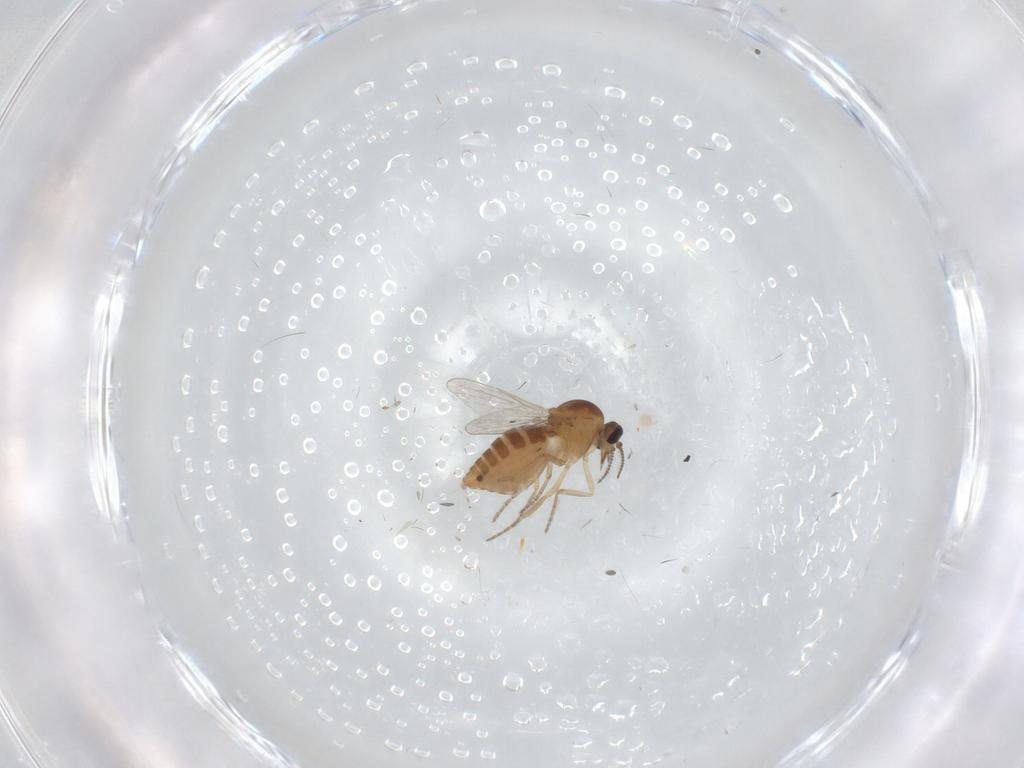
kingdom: Animalia
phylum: Arthropoda
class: Insecta
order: Diptera
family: Ceratopogonidae
